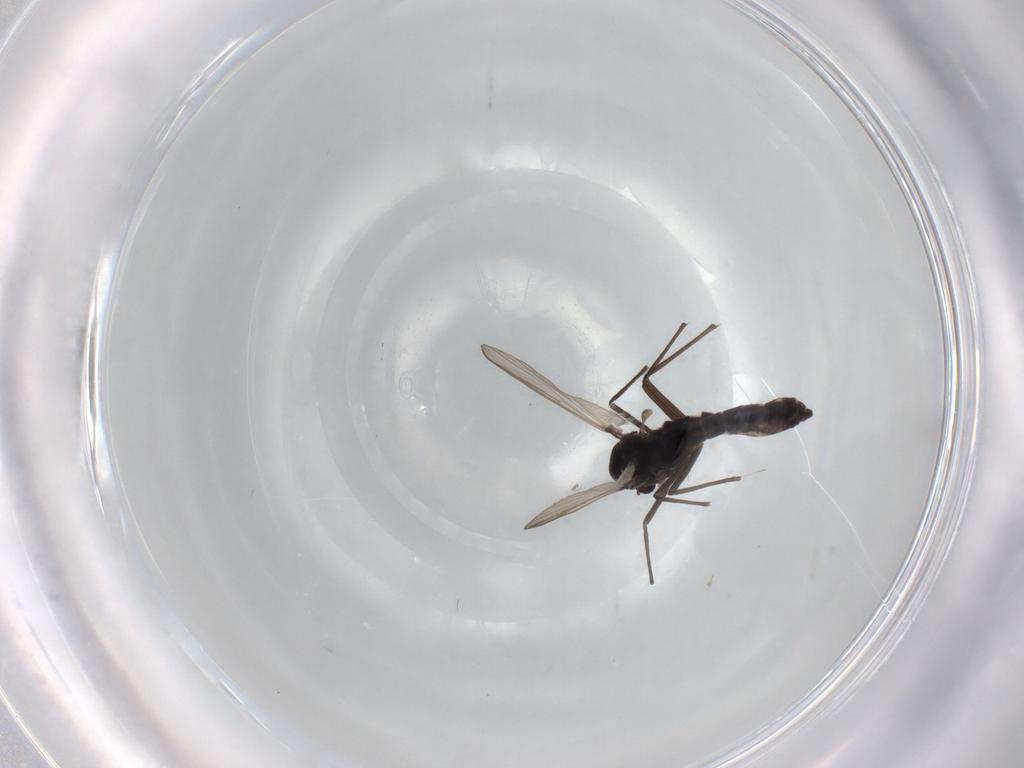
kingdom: Animalia
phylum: Arthropoda
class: Insecta
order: Diptera
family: Chironomidae
